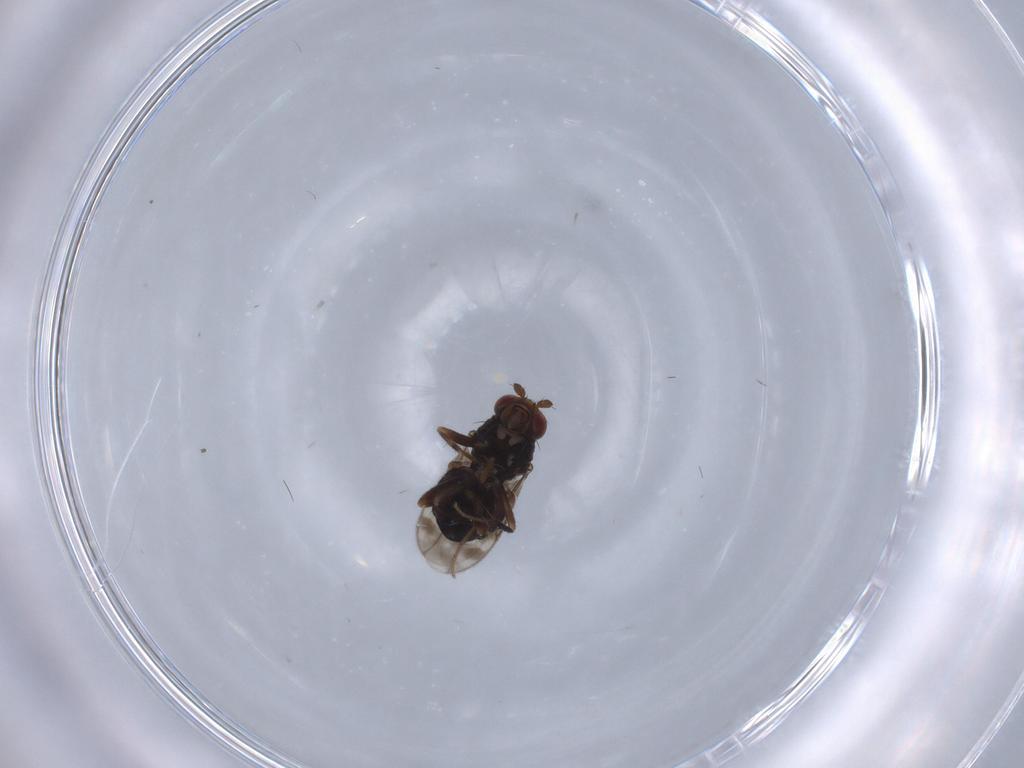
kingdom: Animalia
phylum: Arthropoda
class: Insecta
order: Diptera
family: Sphaeroceridae
